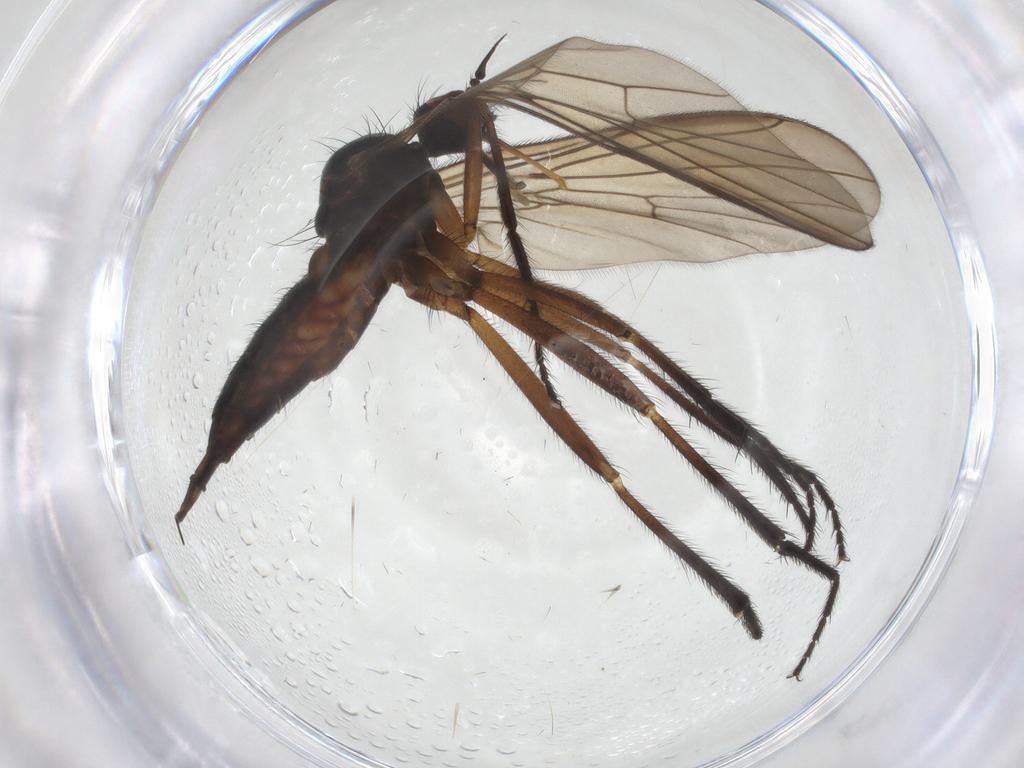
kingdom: Animalia
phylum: Arthropoda
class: Insecta
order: Diptera
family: Empididae
